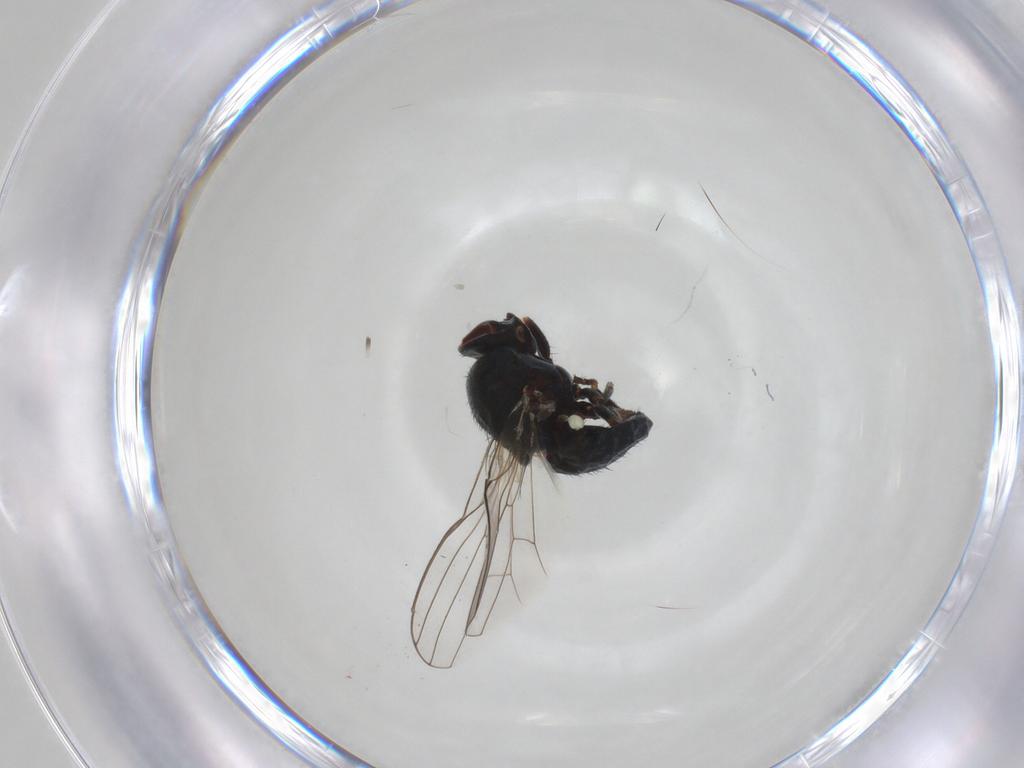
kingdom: Animalia
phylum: Arthropoda
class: Insecta
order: Diptera
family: Chamaemyiidae
